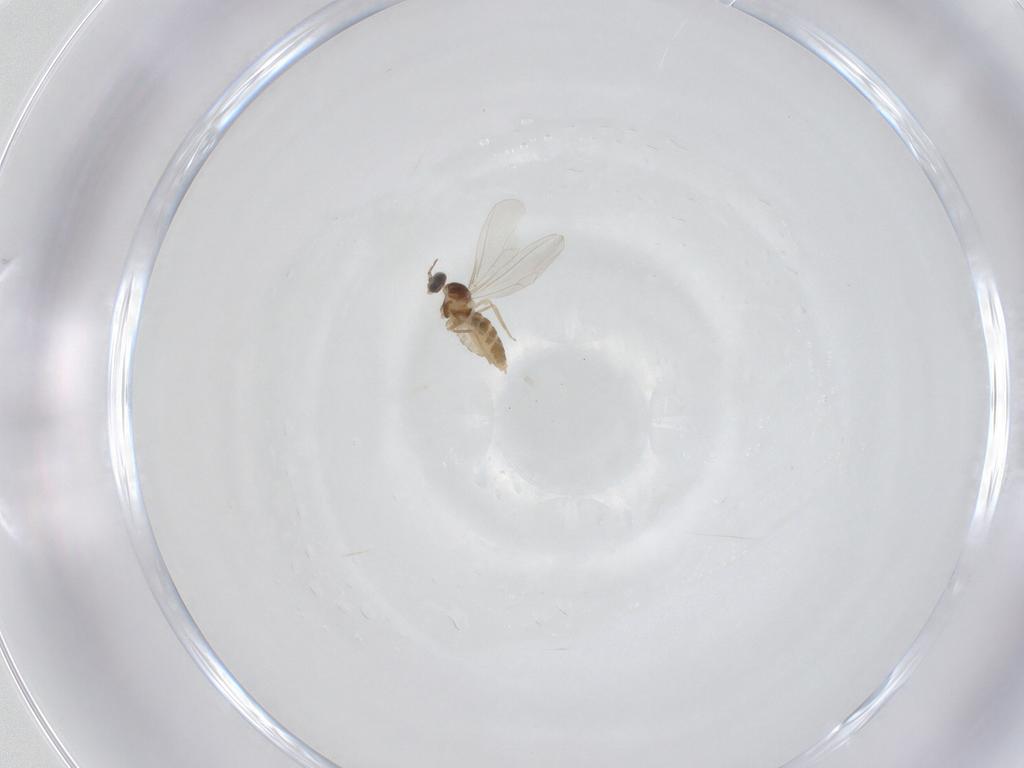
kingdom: Animalia
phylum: Arthropoda
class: Insecta
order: Diptera
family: Cecidomyiidae
